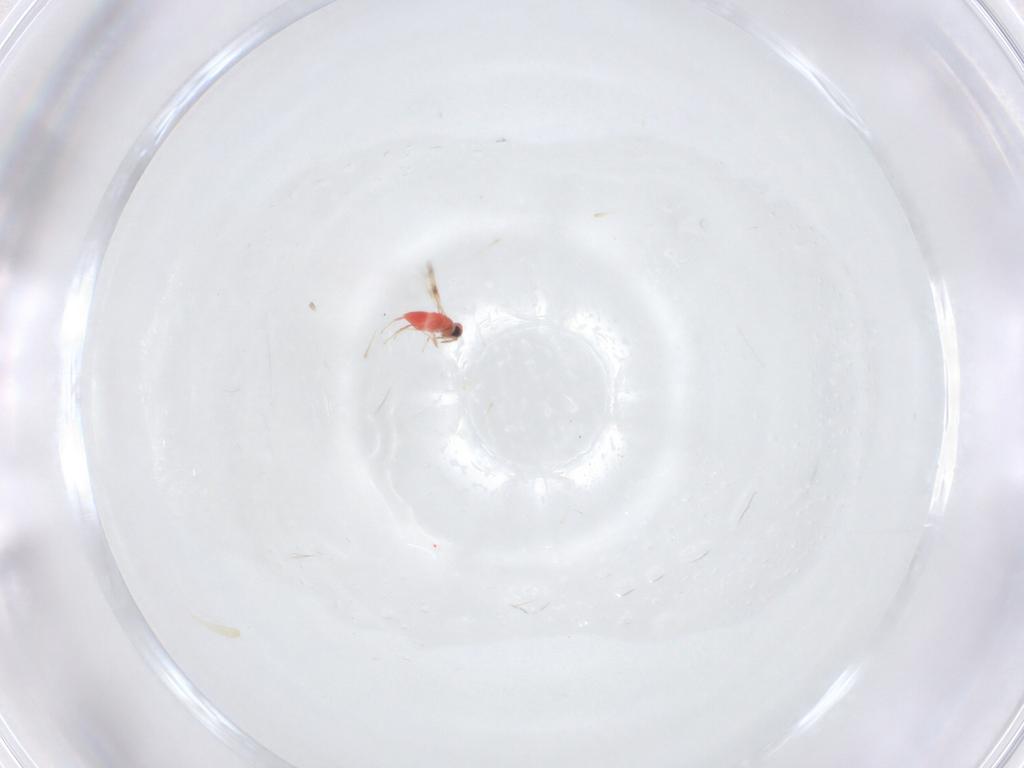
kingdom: Animalia
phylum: Arthropoda
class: Insecta
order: Hymenoptera
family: Trichogrammatidae
